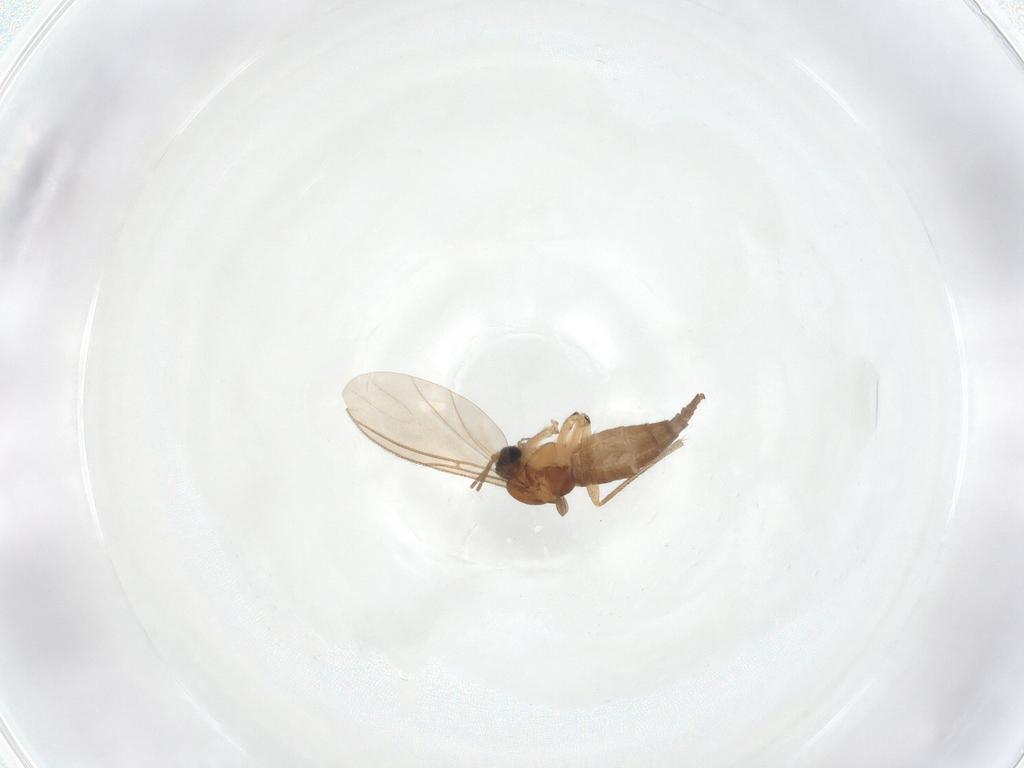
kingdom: Animalia
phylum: Arthropoda
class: Insecta
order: Diptera
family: Sciaridae
